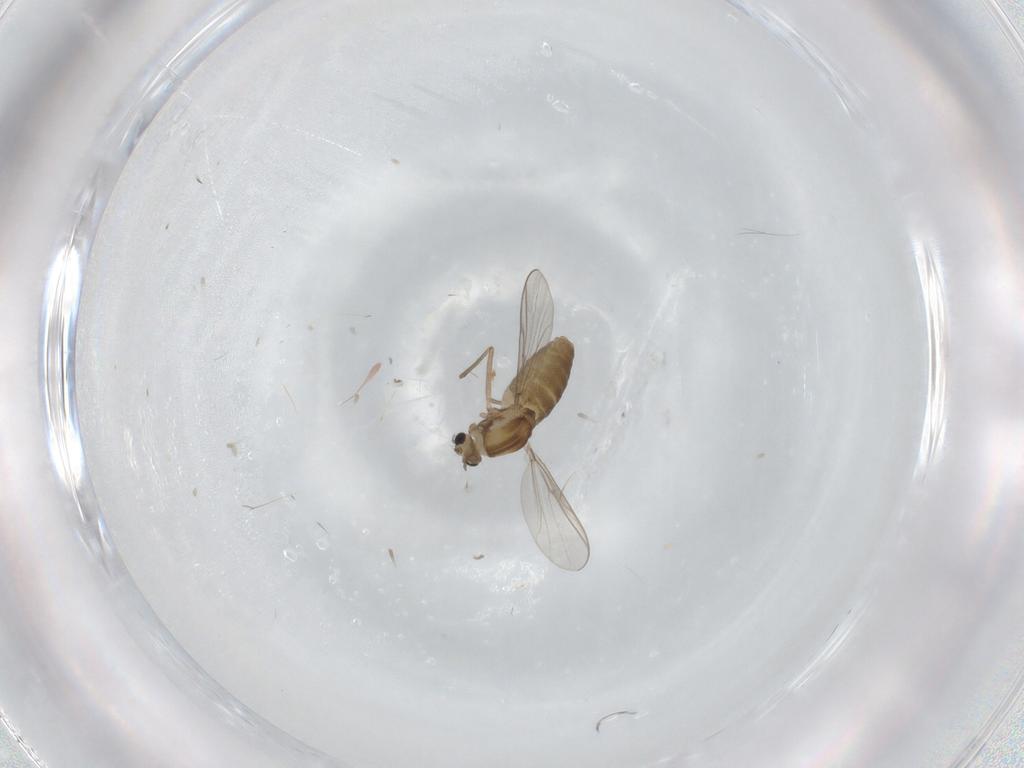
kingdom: Animalia
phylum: Arthropoda
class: Insecta
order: Diptera
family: Chironomidae
